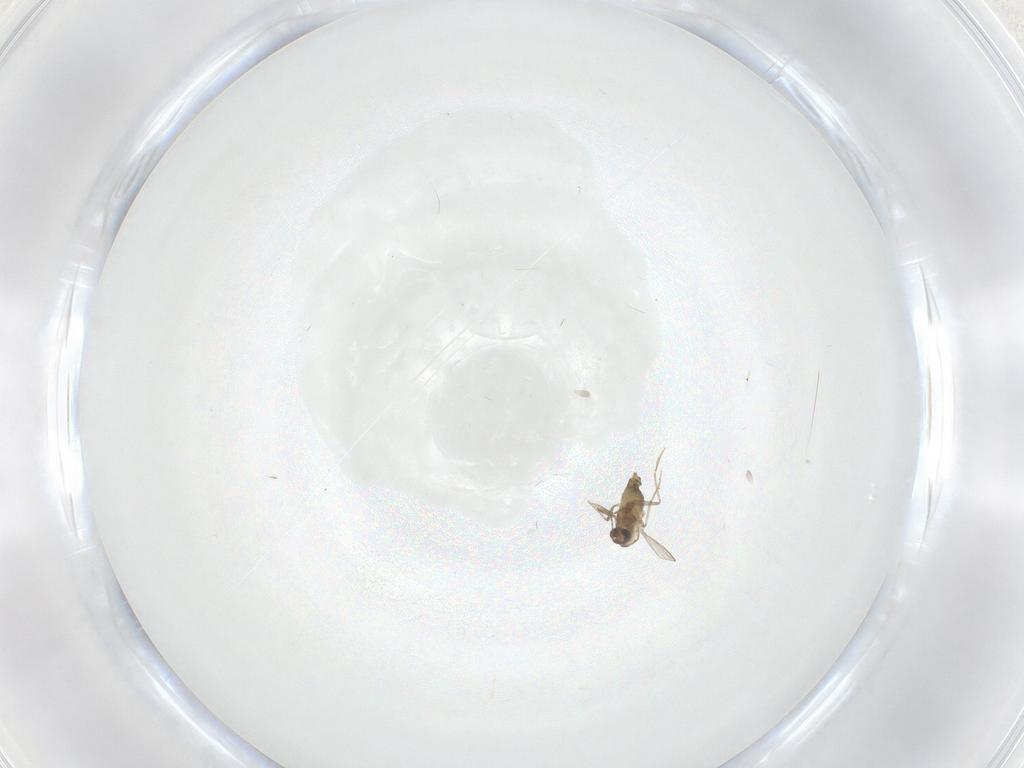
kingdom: Animalia
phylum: Arthropoda
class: Insecta
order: Diptera
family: Chironomidae
